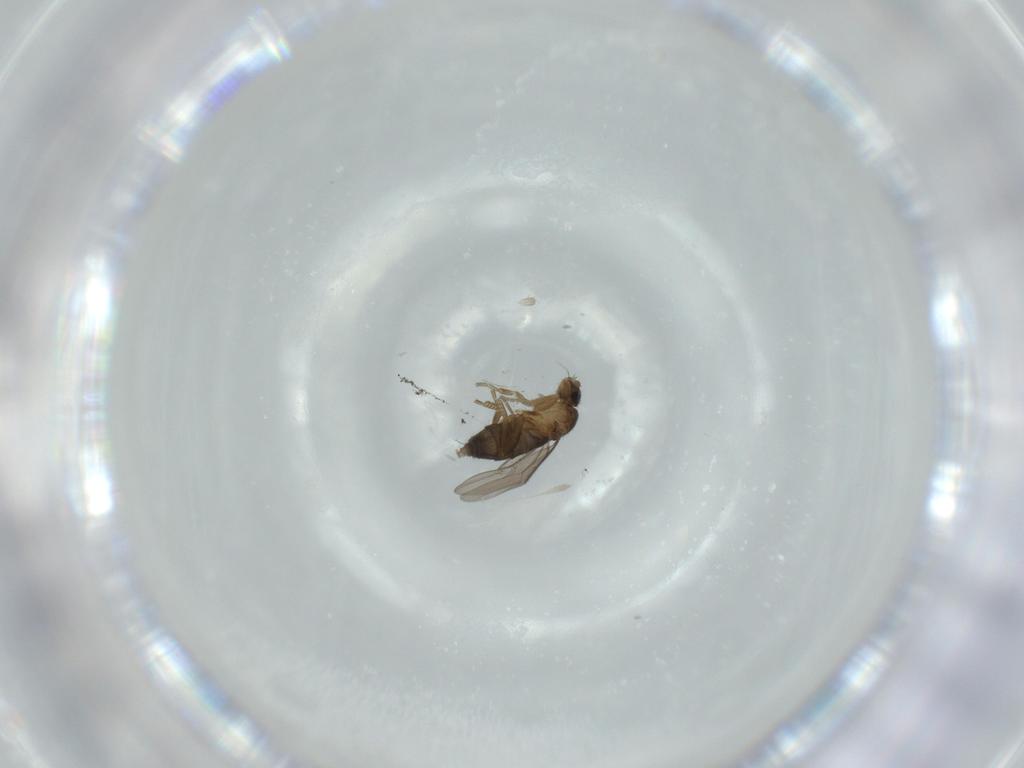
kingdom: Animalia
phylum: Arthropoda
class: Insecta
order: Diptera
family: Phoridae
